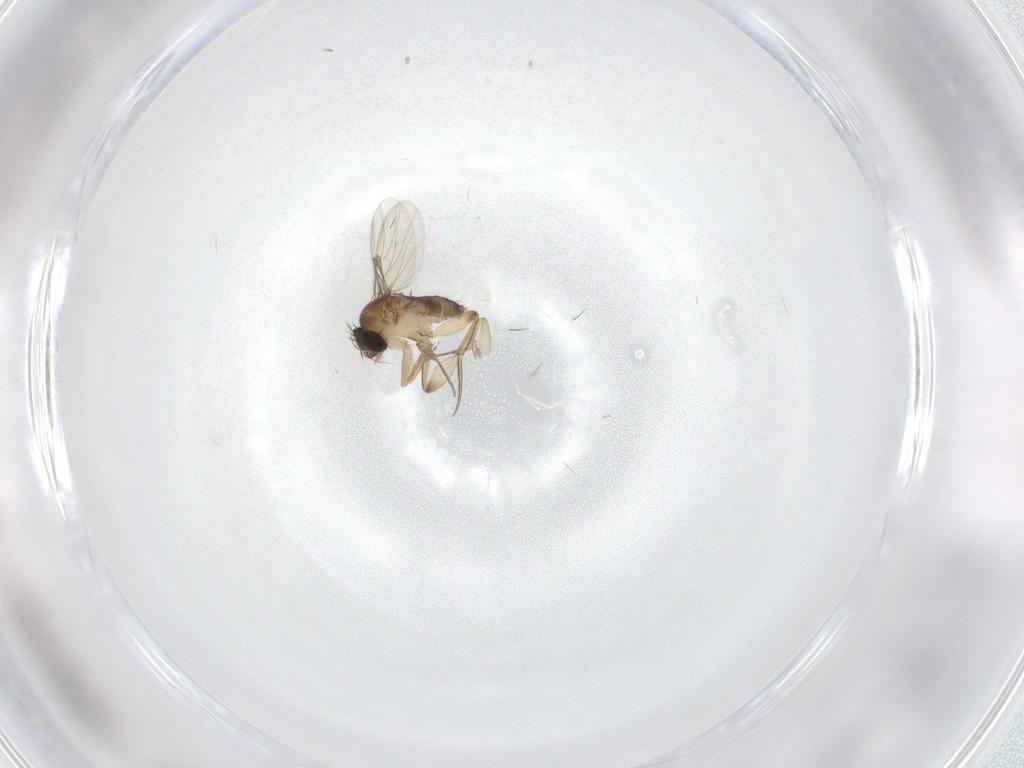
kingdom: Animalia
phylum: Arthropoda
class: Insecta
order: Diptera
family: Phoridae
